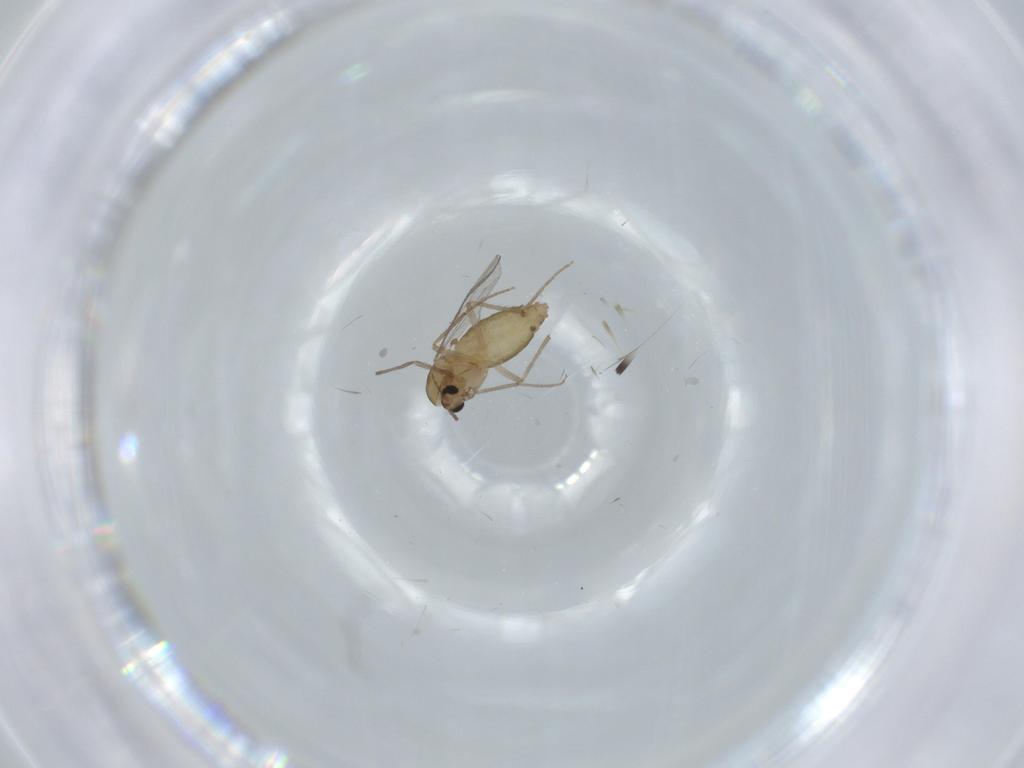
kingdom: Animalia
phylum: Arthropoda
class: Insecta
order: Diptera
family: Chironomidae
